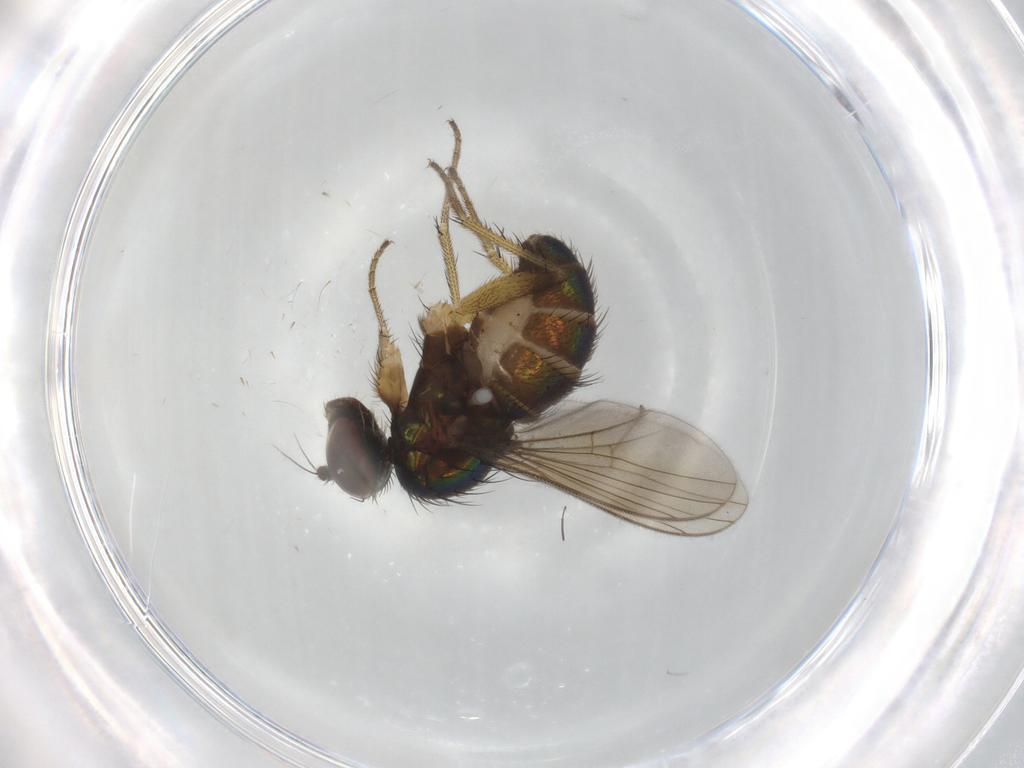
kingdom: Animalia
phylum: Arthropoda
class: Insecta
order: Diptera
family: Dolichopodidae
